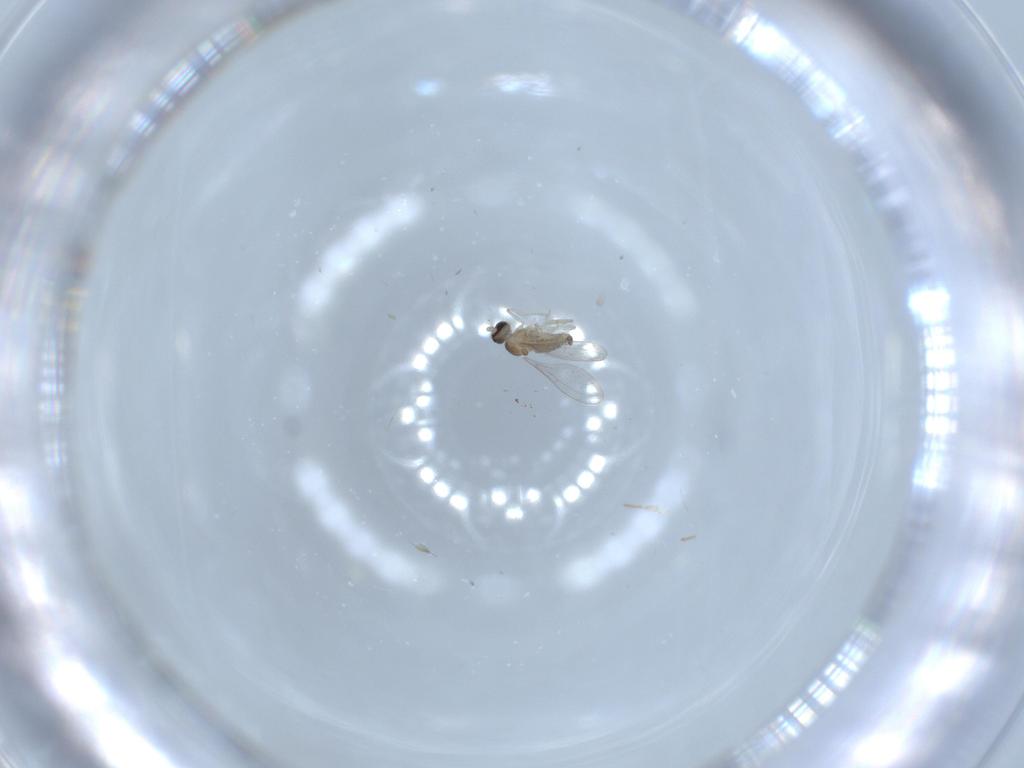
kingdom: Animalia
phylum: Arthropoda
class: Insecta
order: Diptera
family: Cecidomyiidae
